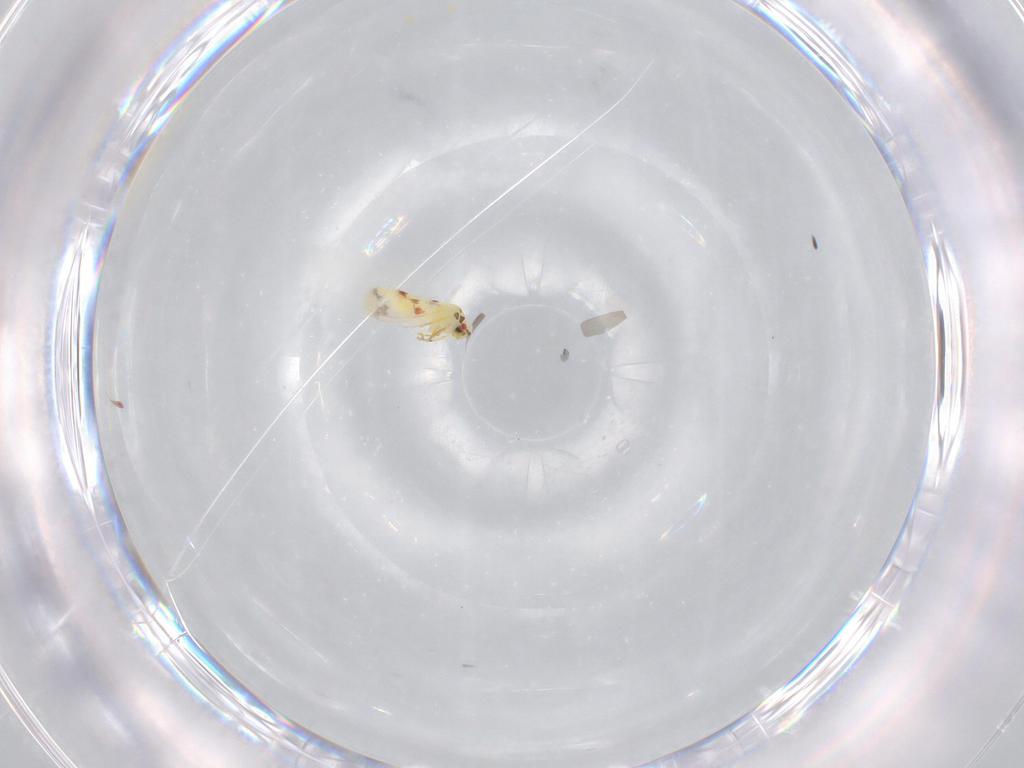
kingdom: Animalia
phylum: Arthropoda
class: Insecta
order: Hemiptera
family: Aleyrodidae
